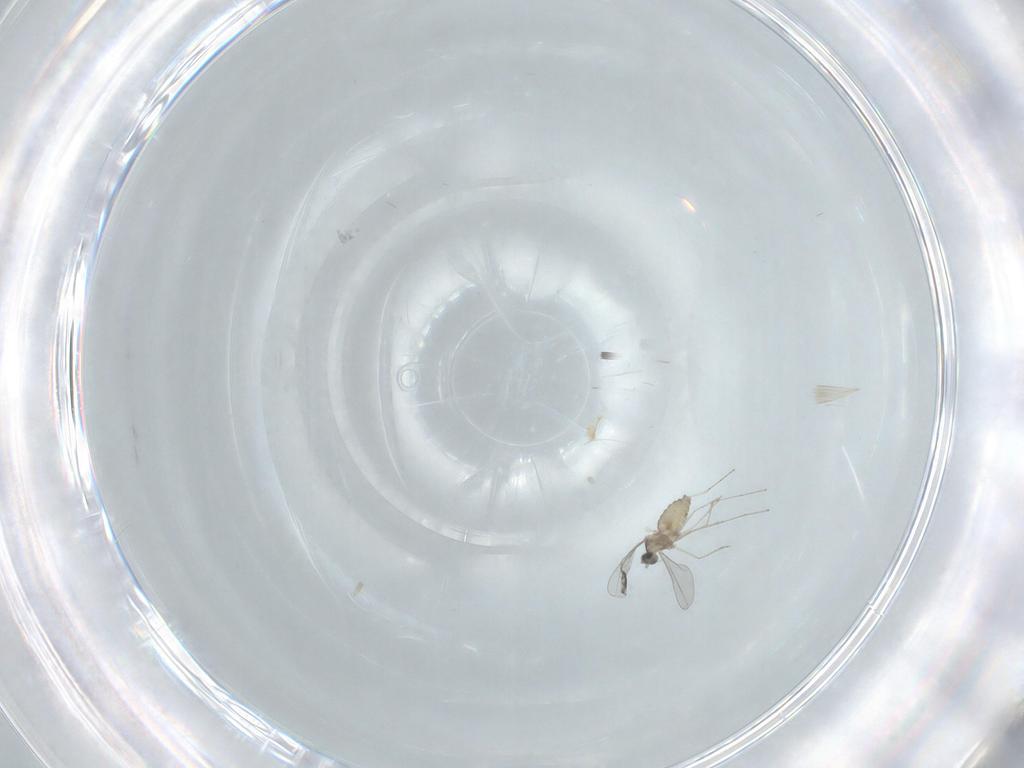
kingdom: Animalia
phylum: Arthropoda
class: Insecta
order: Diptera
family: Cecidomyiidae
